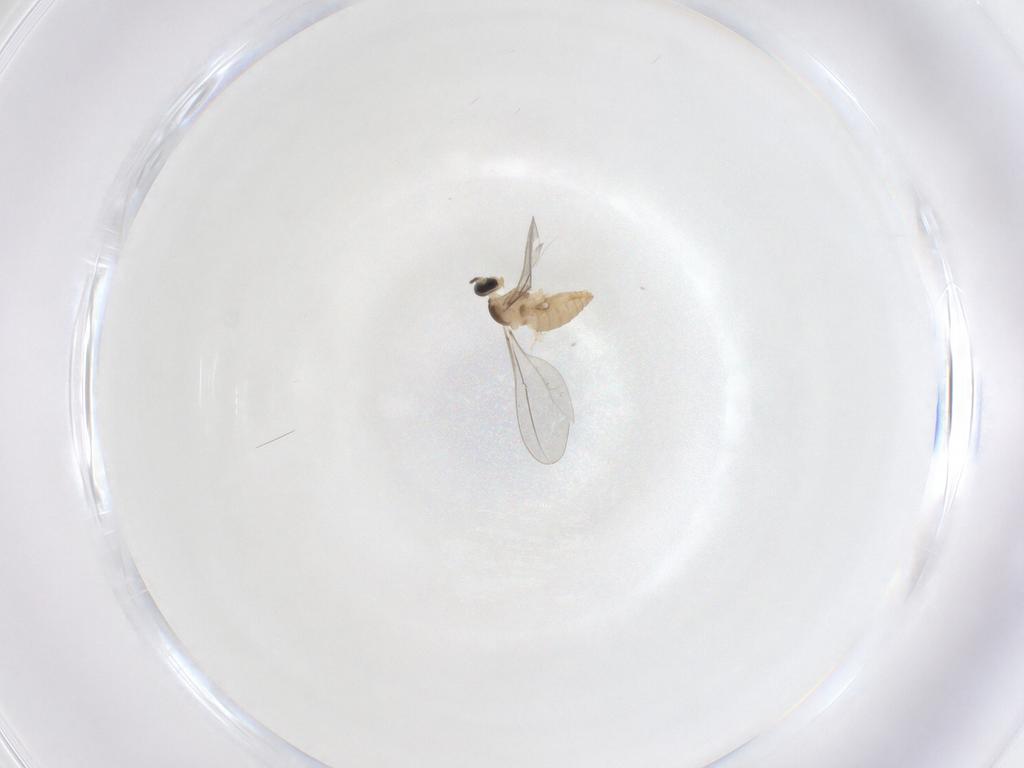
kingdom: Animalia
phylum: Arthropoda
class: Insecta
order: Diptera
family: Cecidomyiidae
